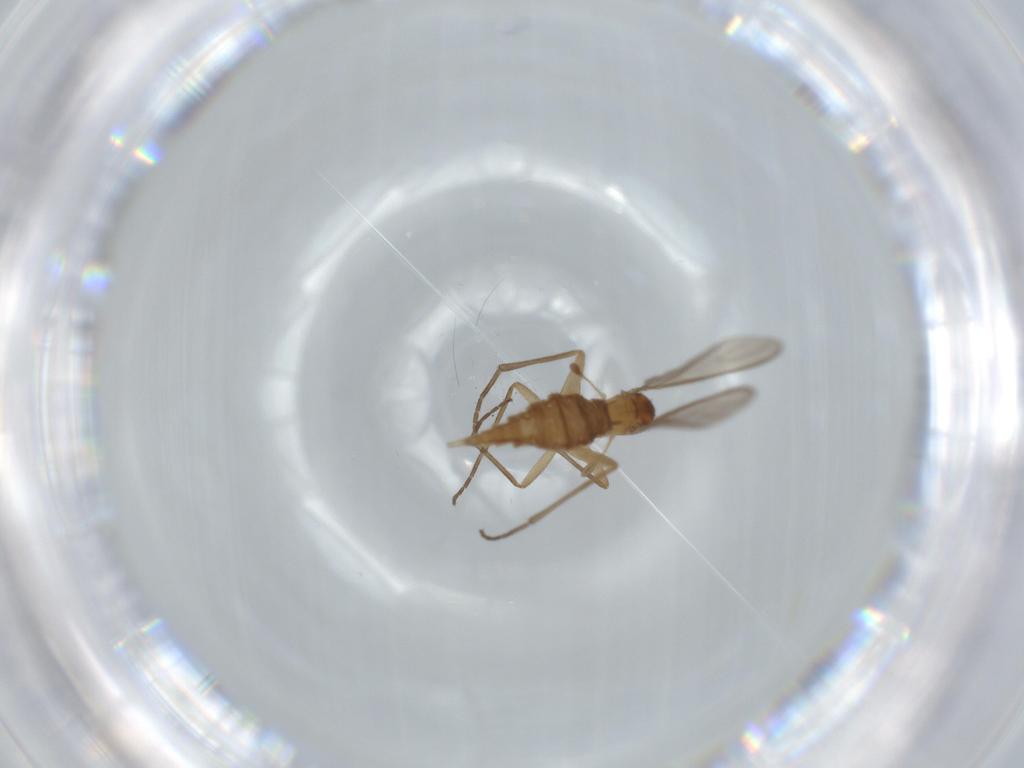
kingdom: Animalia
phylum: Arthropoda
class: Insecta
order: Diptera
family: Sciaridae
